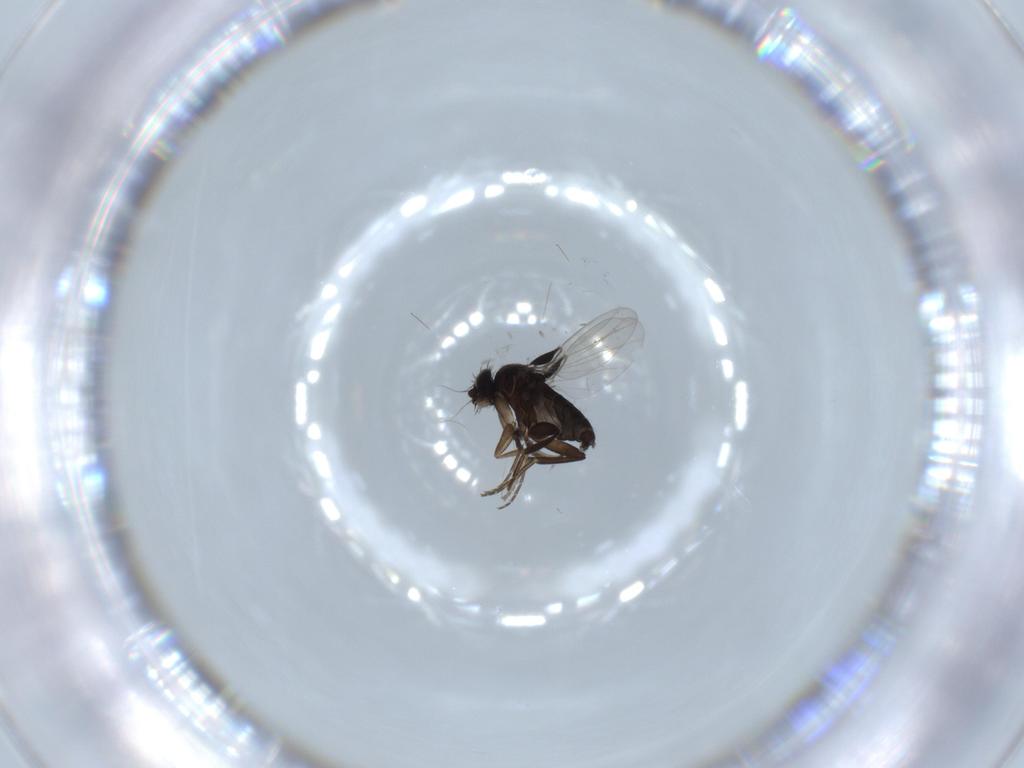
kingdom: Animalia
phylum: Arthropoda
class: Insecta
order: Diptera
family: Phoridae
